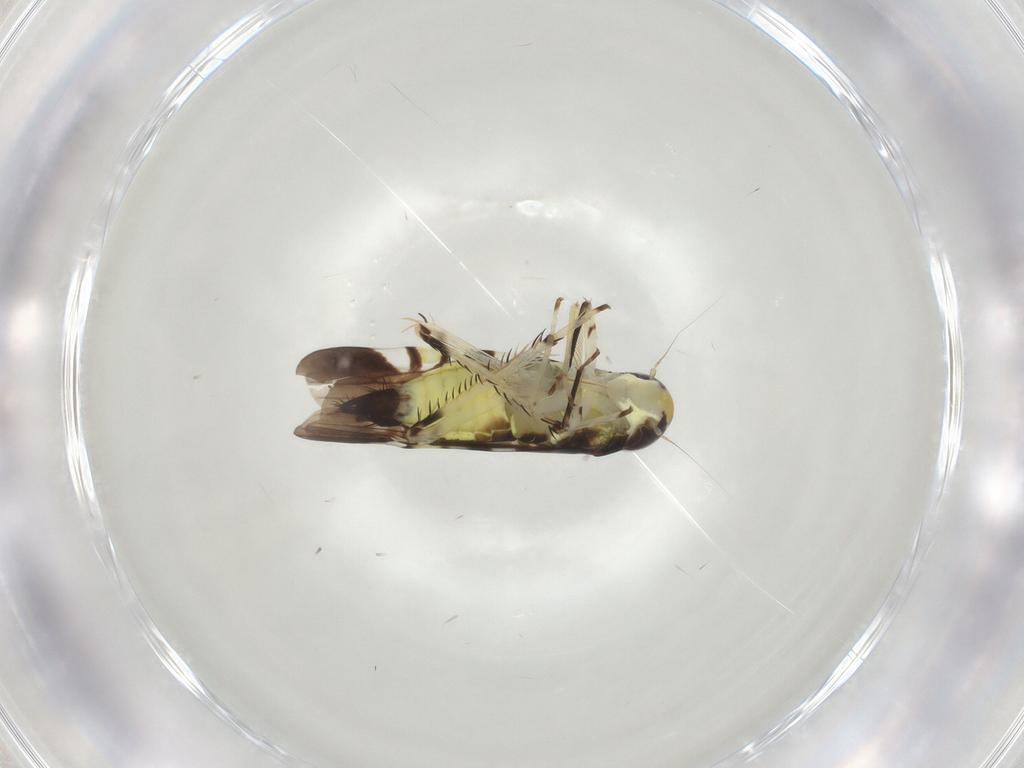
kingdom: Animalia
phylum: Arthropoda
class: Insecta
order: Hemiptera
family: Cicadellidae
